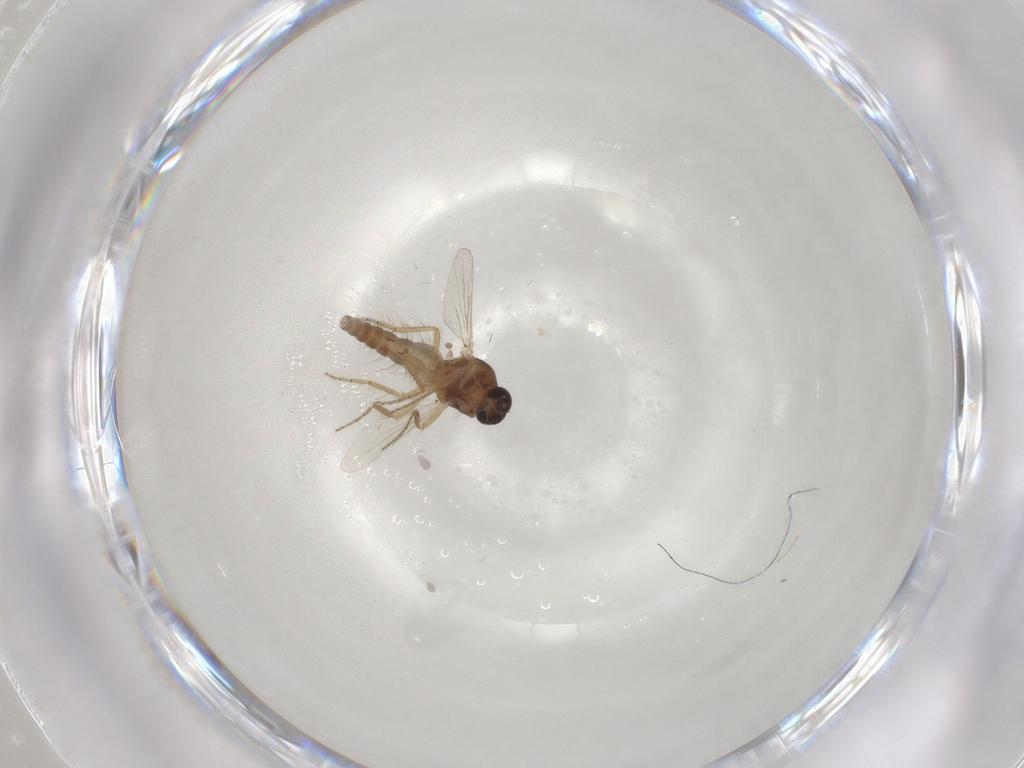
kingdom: Animalia
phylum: Arthropoda
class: Insecta
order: Diptera
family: Ceratopogonidae
